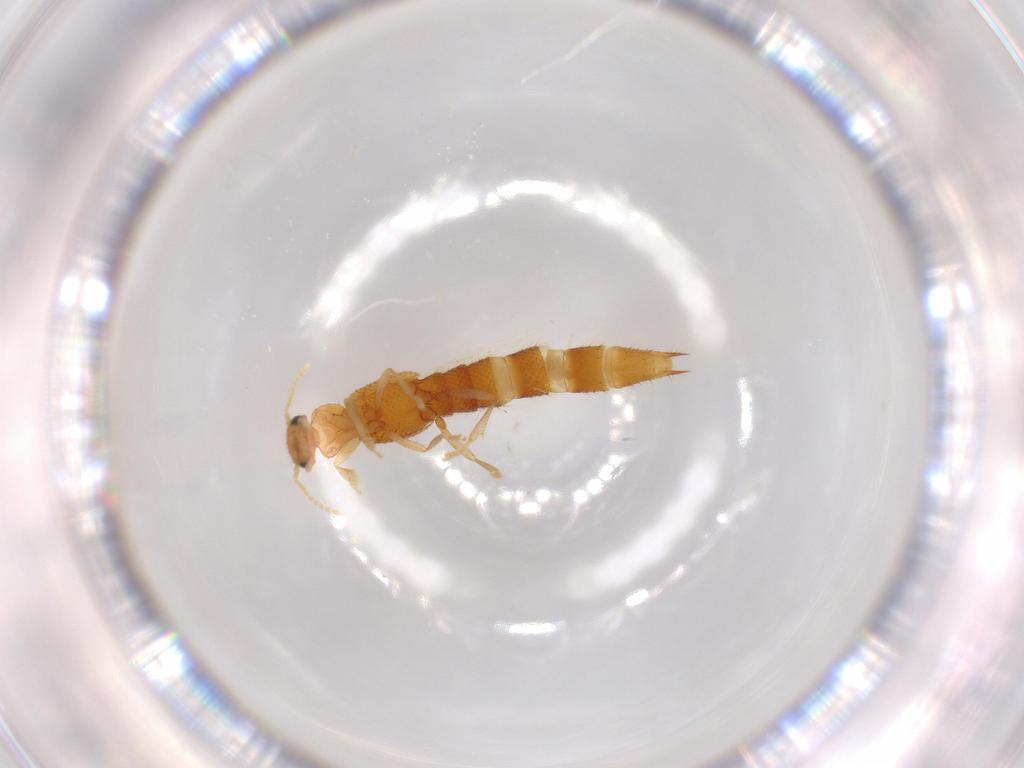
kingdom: Animalia
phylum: Arthropoda
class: Insecta
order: Coleoptera
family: Staphylinidae
